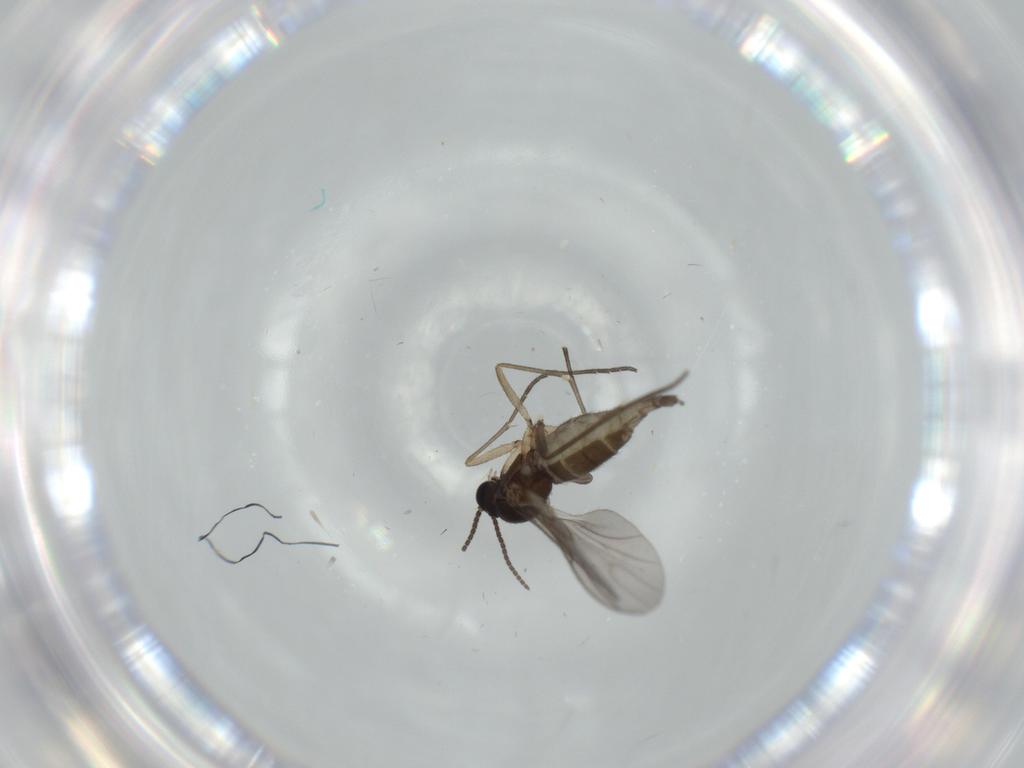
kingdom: Animalia
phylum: Arthropoda
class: Insecta
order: Diptera
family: Sciaridae
